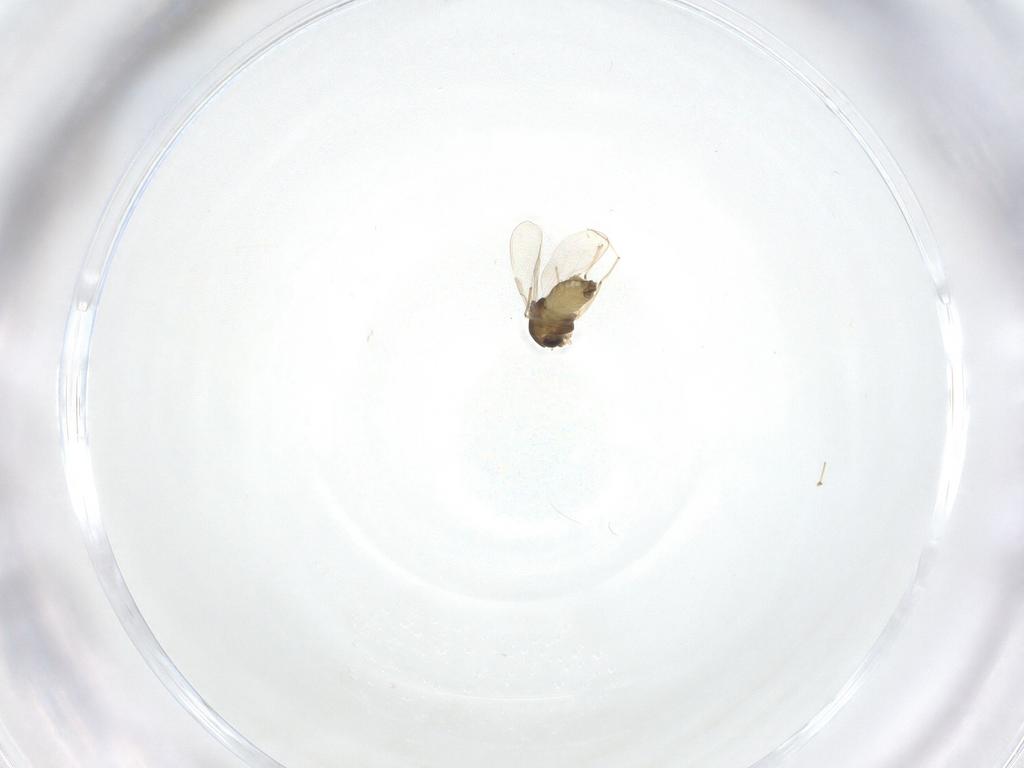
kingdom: Animalia
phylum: Arthropoda
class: Insecta
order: Diptera
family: Chironomidae
